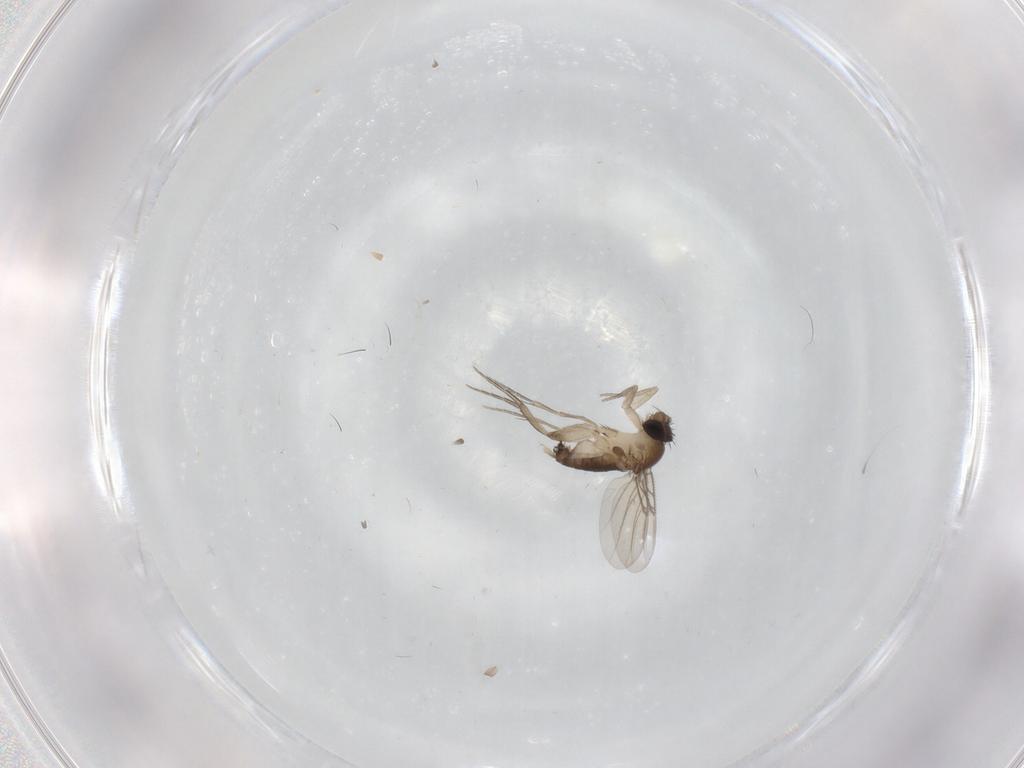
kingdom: Animalia
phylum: Arthropoda
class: Insecta
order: Diptera
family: Phoridae
